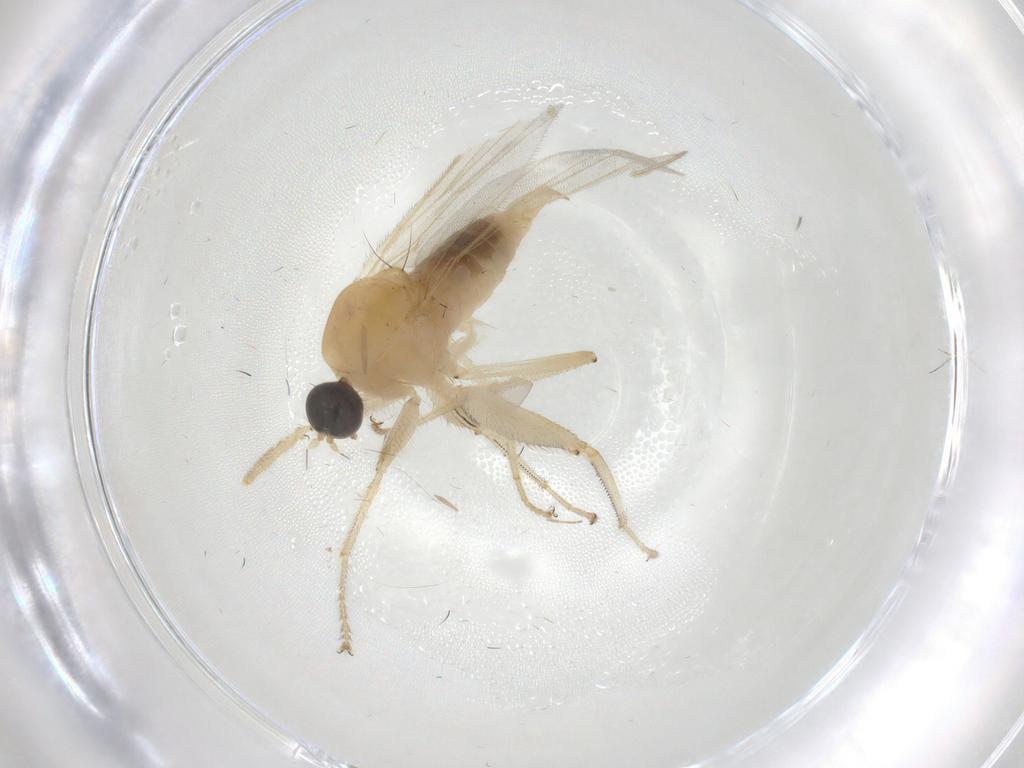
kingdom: Animalia
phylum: Arthropoda
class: Insecta
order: Diptera
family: Hybotidae
